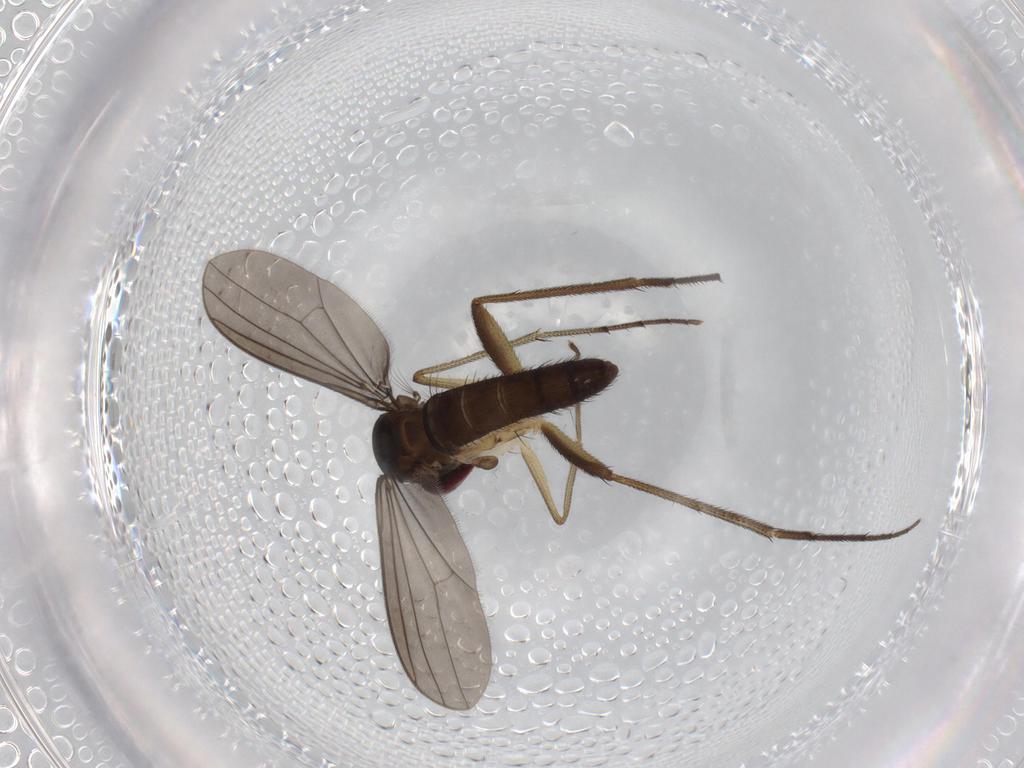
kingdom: Animalia
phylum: Arthropoda
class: Insecta
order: Diptera
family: Dolichopodidae
